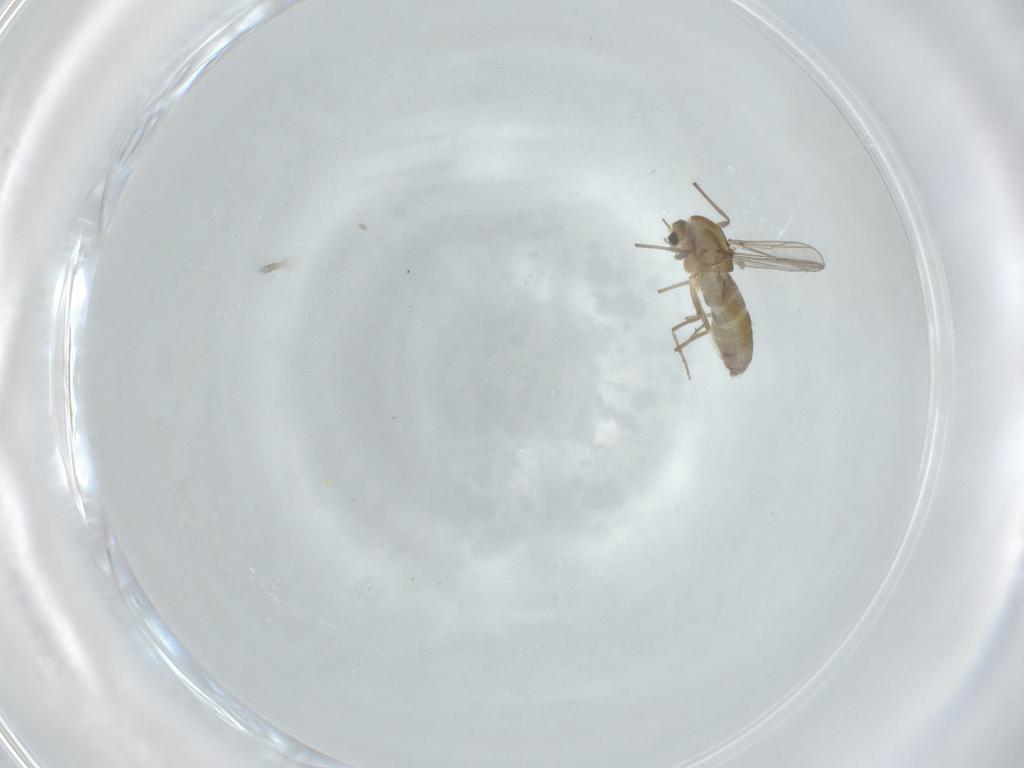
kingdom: Animalia
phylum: Arthropoda
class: Insecta
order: Diptera
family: Chironomidae
